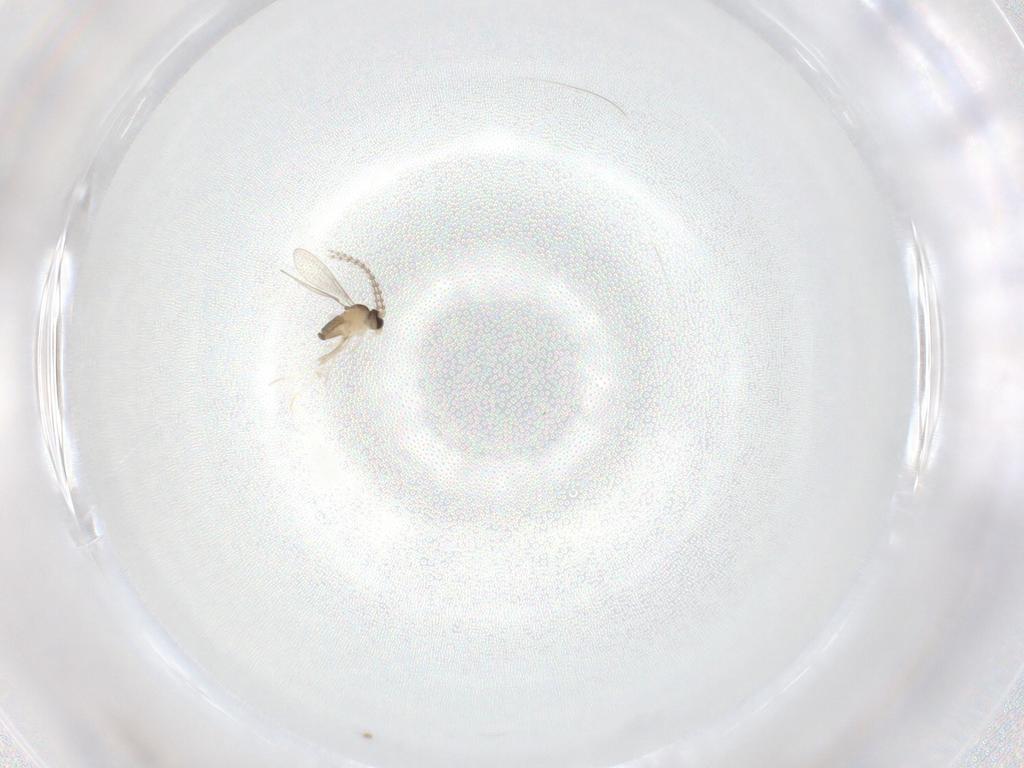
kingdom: Animalia
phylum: Arthropoda
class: Insecta
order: Diptera
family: Cecidomyiidae
